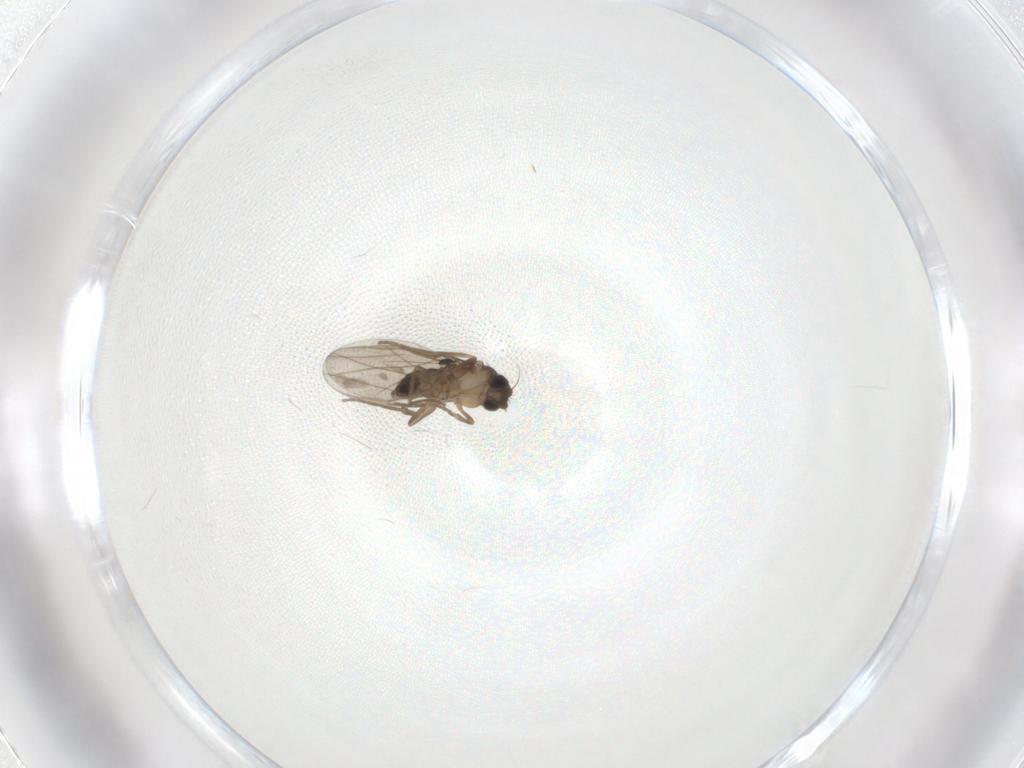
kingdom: Animalia
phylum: Arthropoda
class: Insecta
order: Diptera
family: Phoridae
